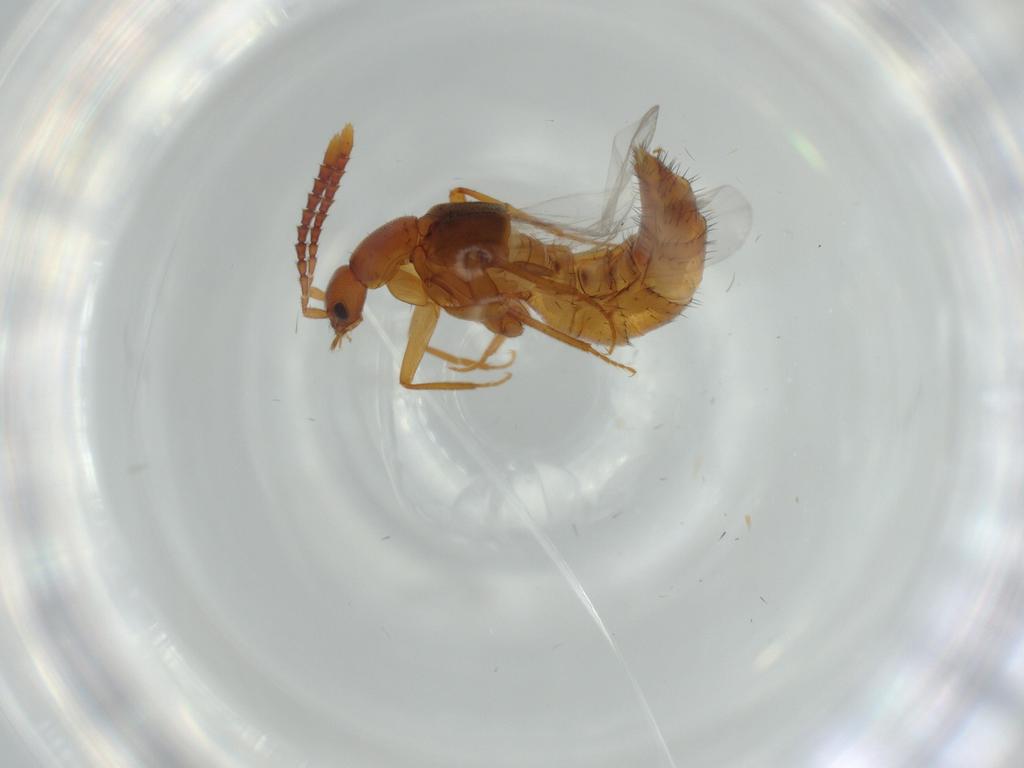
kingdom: Animalia
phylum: Arthropoda
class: Insecta
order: Coleoptera
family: Staphylinidae
